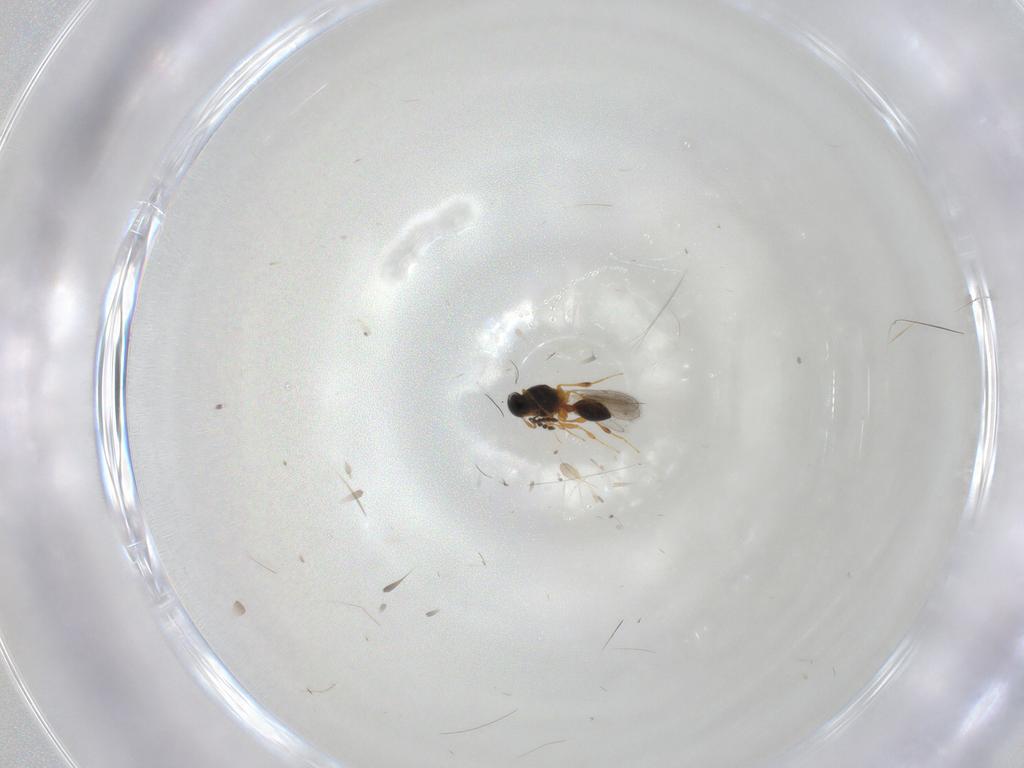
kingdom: Animalia
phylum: Arthropoda
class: Insecta
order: Hymenoptera
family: Platygastridae
